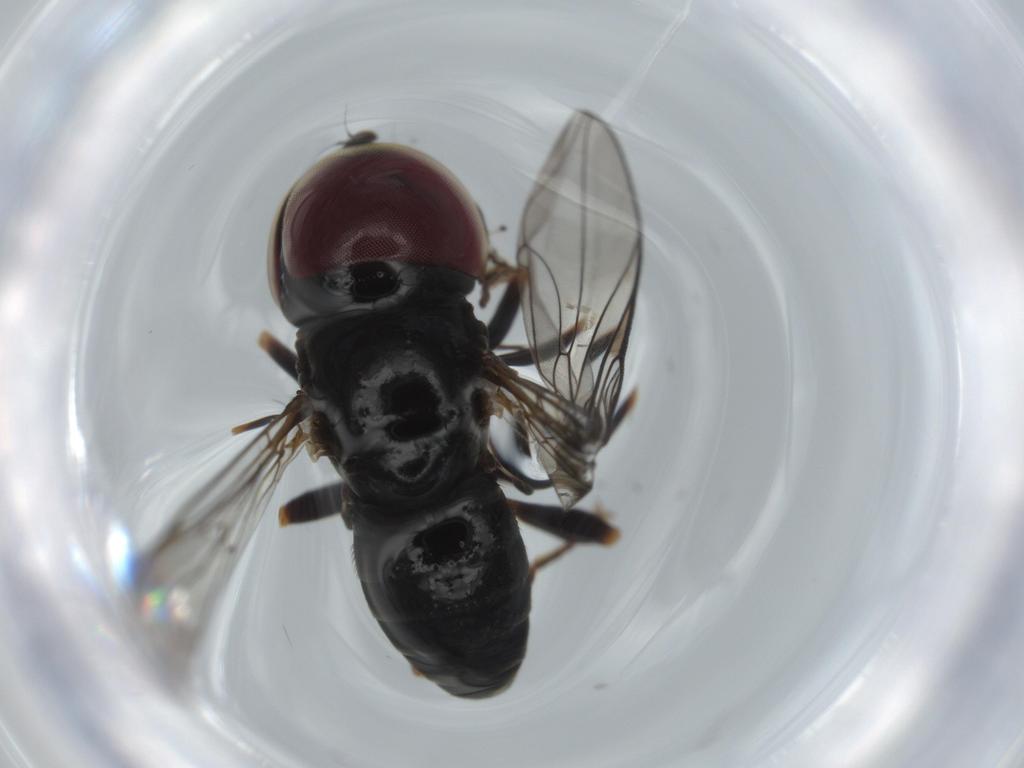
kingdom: Animalia
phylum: Arthropoda
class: Insecta
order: Diptera
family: Pipunculidae
